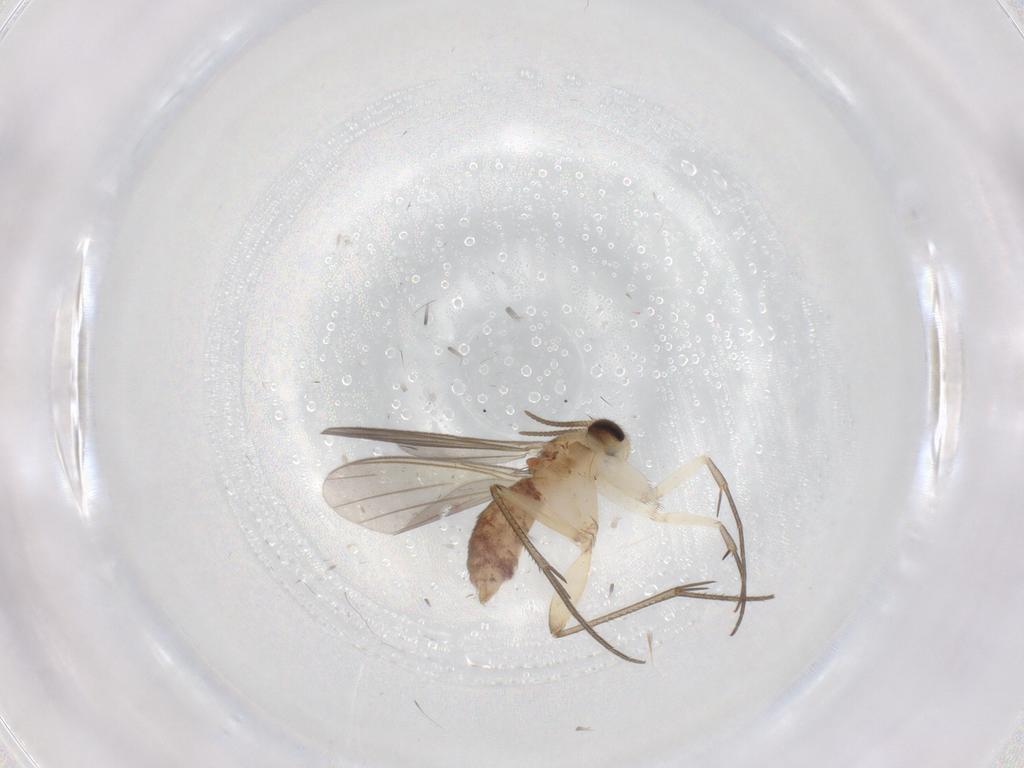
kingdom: Animalia
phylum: Arthropoda
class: Insecta
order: Diptera
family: Mycetophilidae
